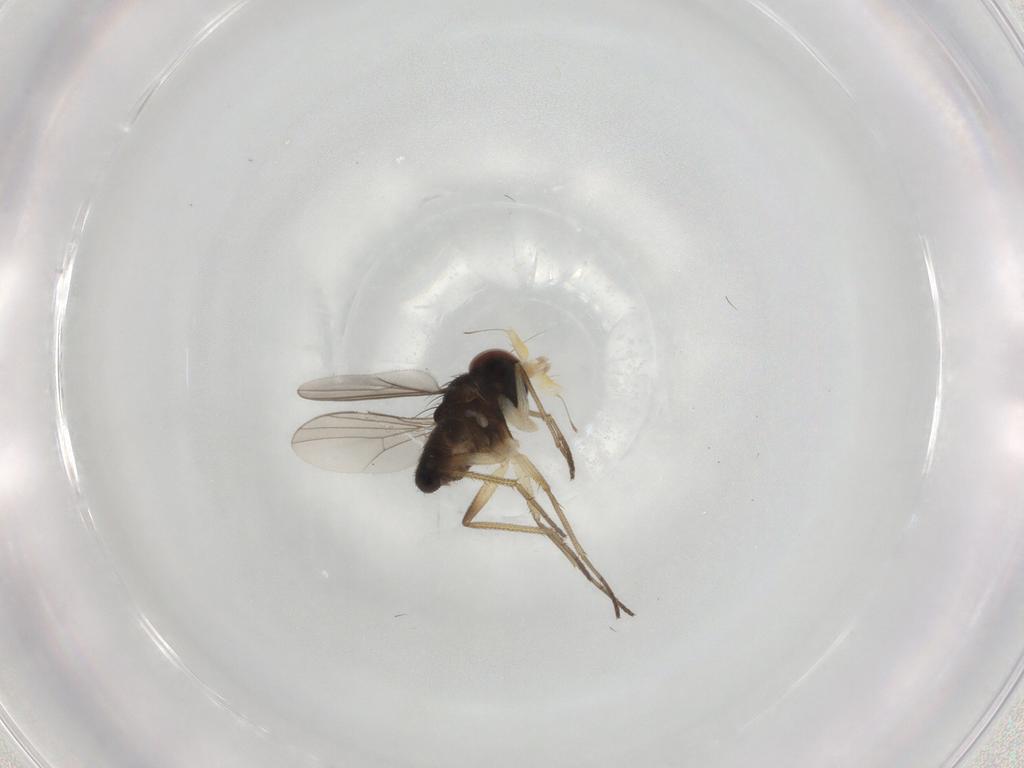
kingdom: Animalia
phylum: Arthropoda
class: Insecta
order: Diptera
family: Dolichopodidae
